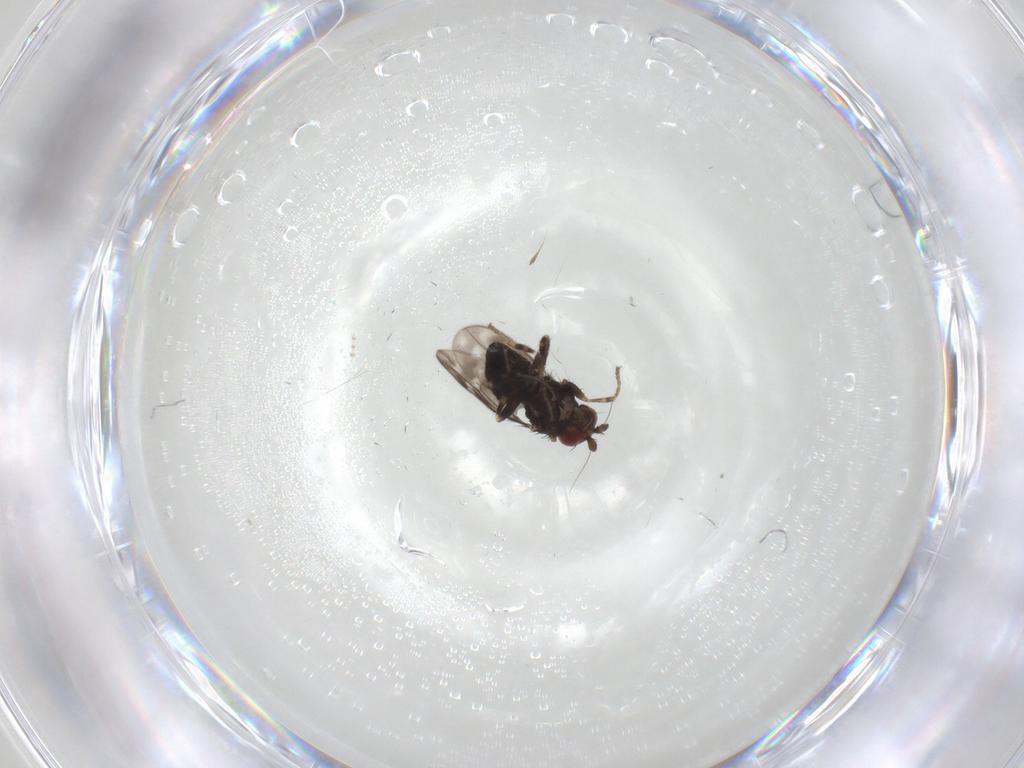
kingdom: Animalia
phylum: Arthropoda
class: Insecta
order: Diptera
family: Sphaeroceridae
